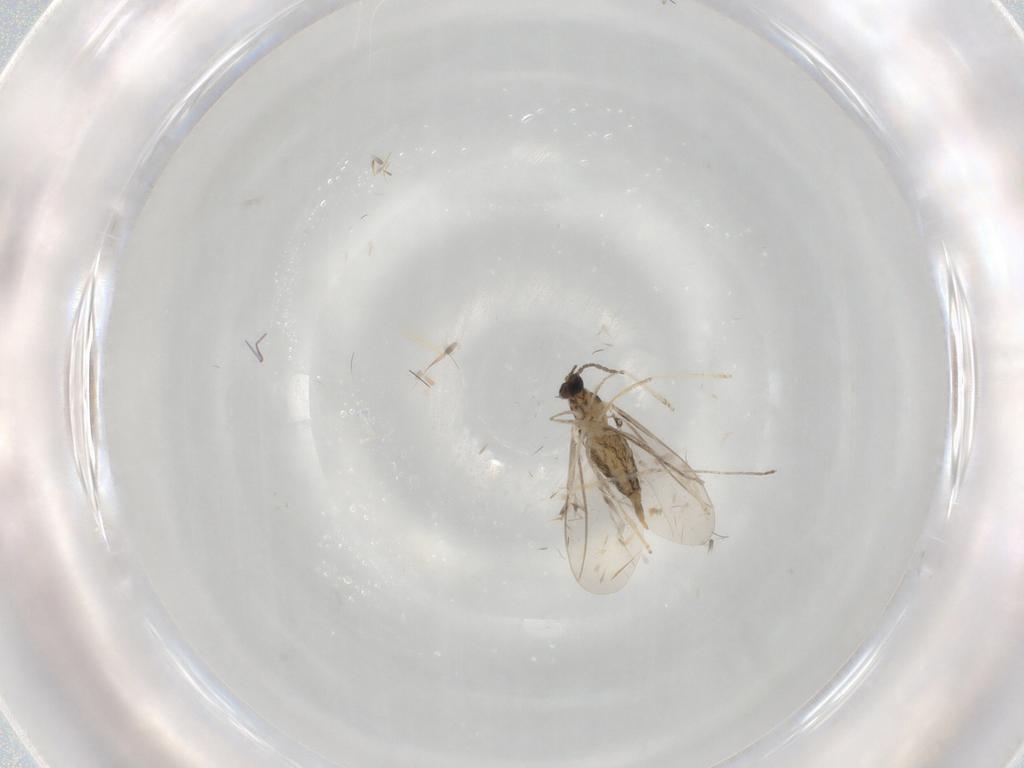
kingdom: Animalia
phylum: Arthropoda
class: Insecta
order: Diptera
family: Cecidomyiidae
